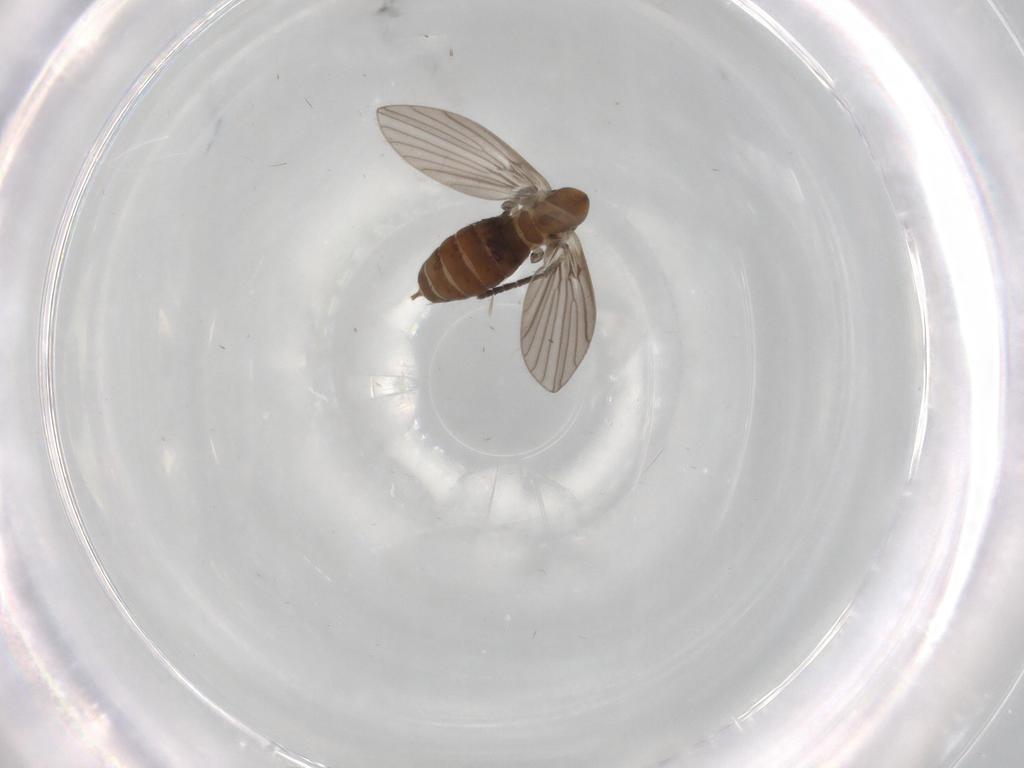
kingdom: Animalia
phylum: Arthropoda
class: Insecta
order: Diptera
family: Psychodidae
